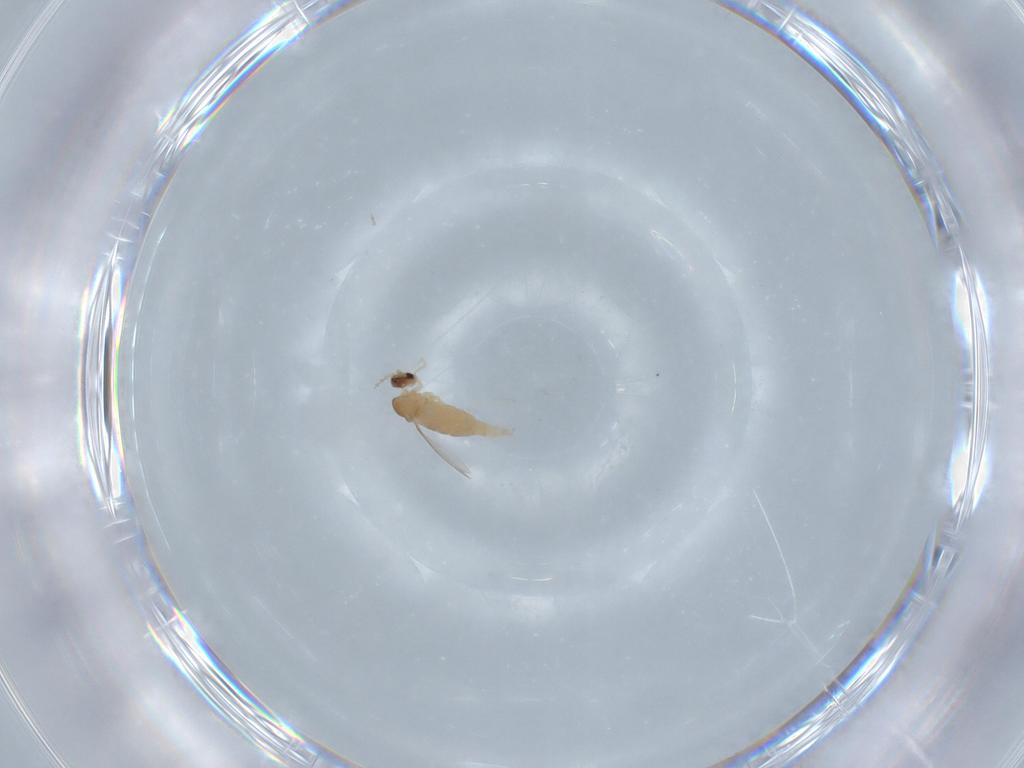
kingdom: Animalia
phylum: Arthropoda
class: Insecta
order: Diptera
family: Cecidomyiidae
